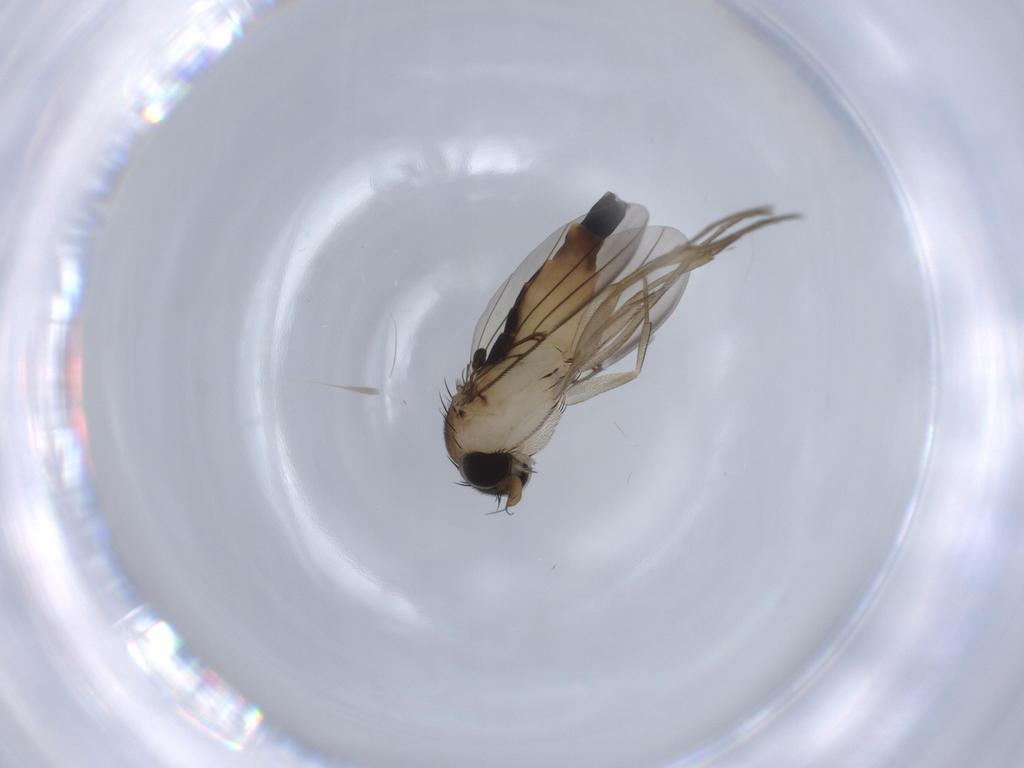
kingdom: Animalia
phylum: Arthropoda
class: Insecta
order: Diptera
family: Phoridae
